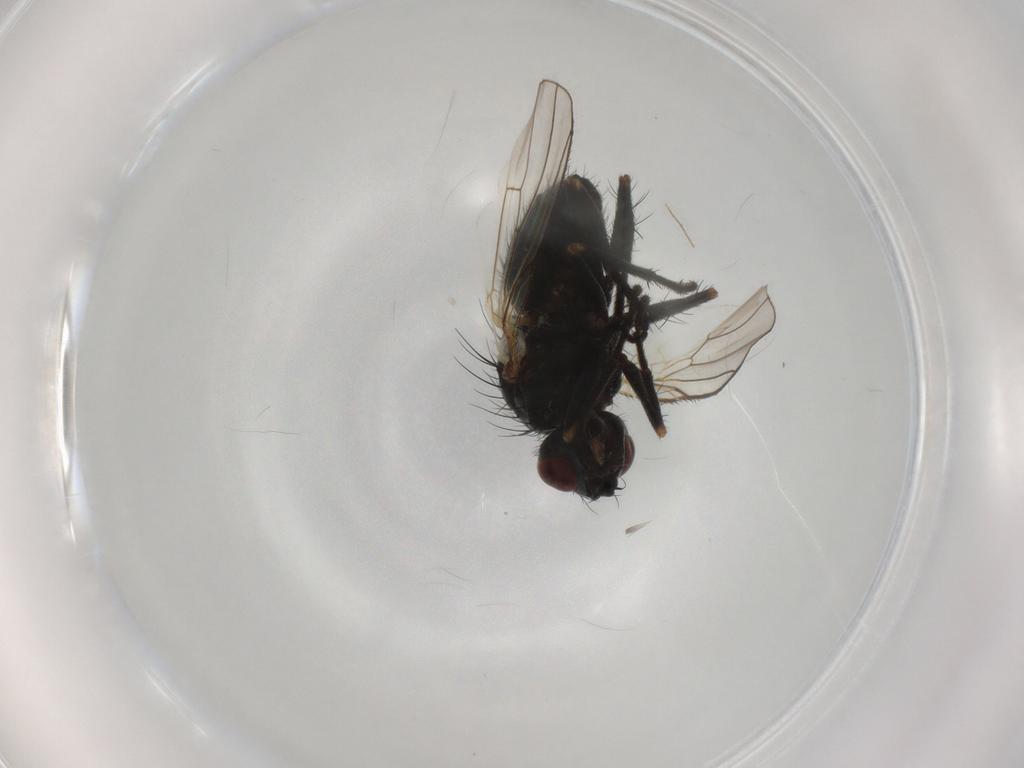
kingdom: Animalia
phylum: Arthropoda
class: Insecta
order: Diptera
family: Muscidae
